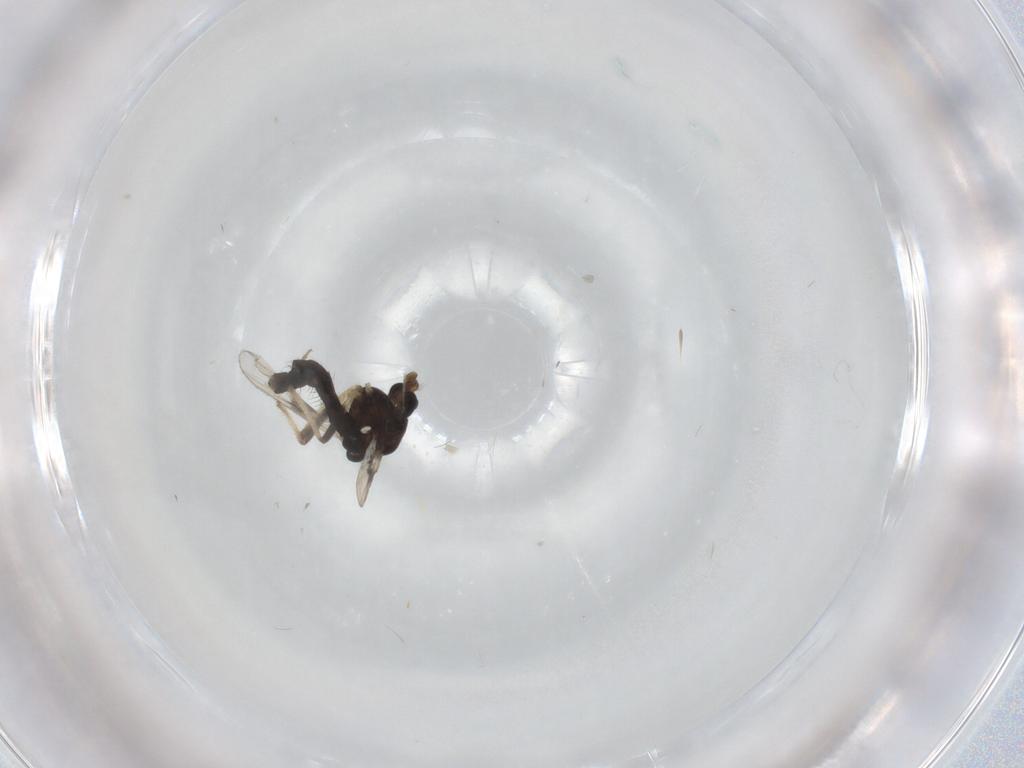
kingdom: Animalia
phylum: Arthropoda
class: Insecta
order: Diptera
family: Chironomidae
